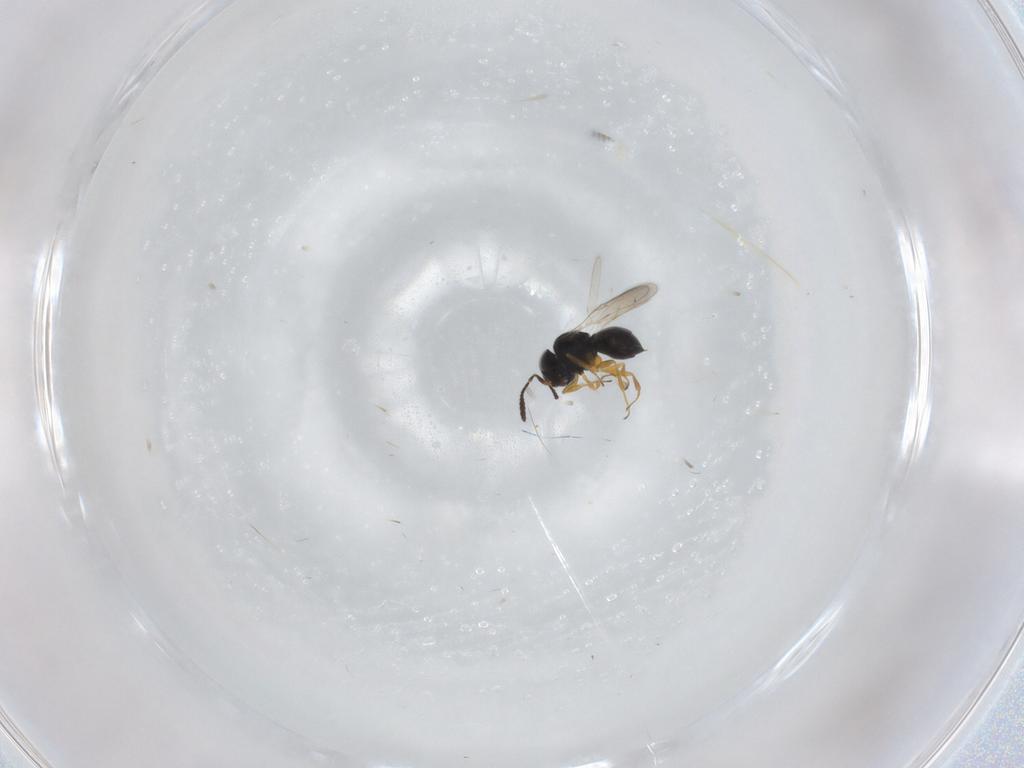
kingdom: Animalia
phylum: Arthropoda
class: Insecta
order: Hymenoptera
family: Scelionidae
